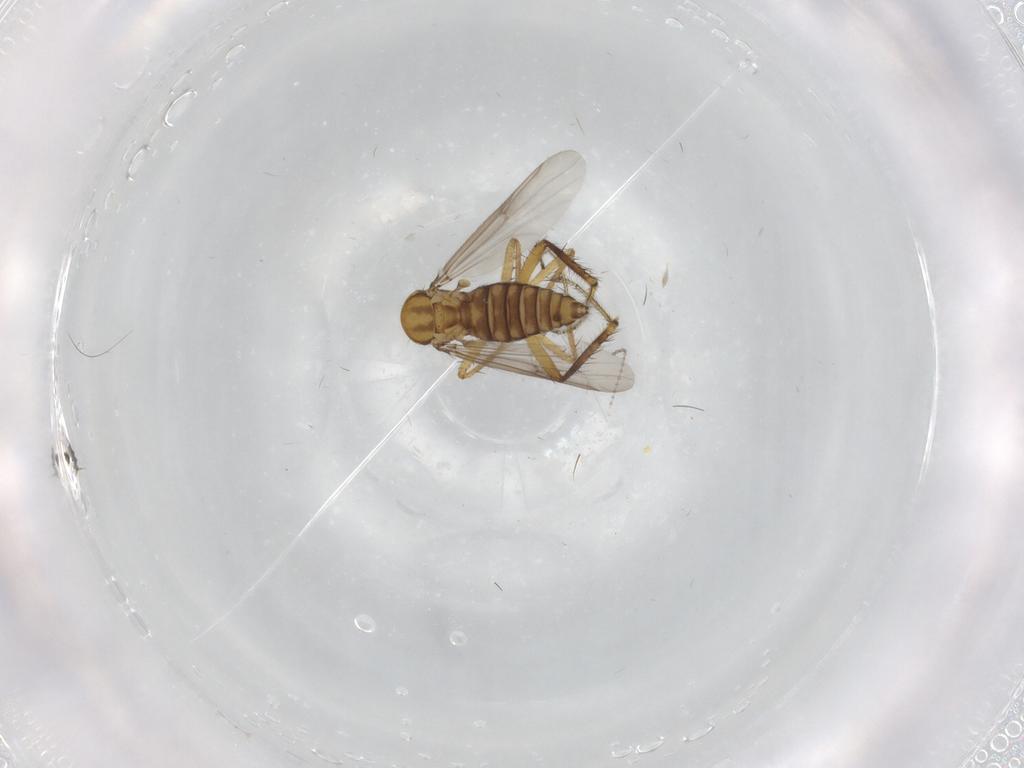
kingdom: Animalia
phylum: Arthropoda
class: Insecta
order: Diptera
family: Ceratopogonidae
